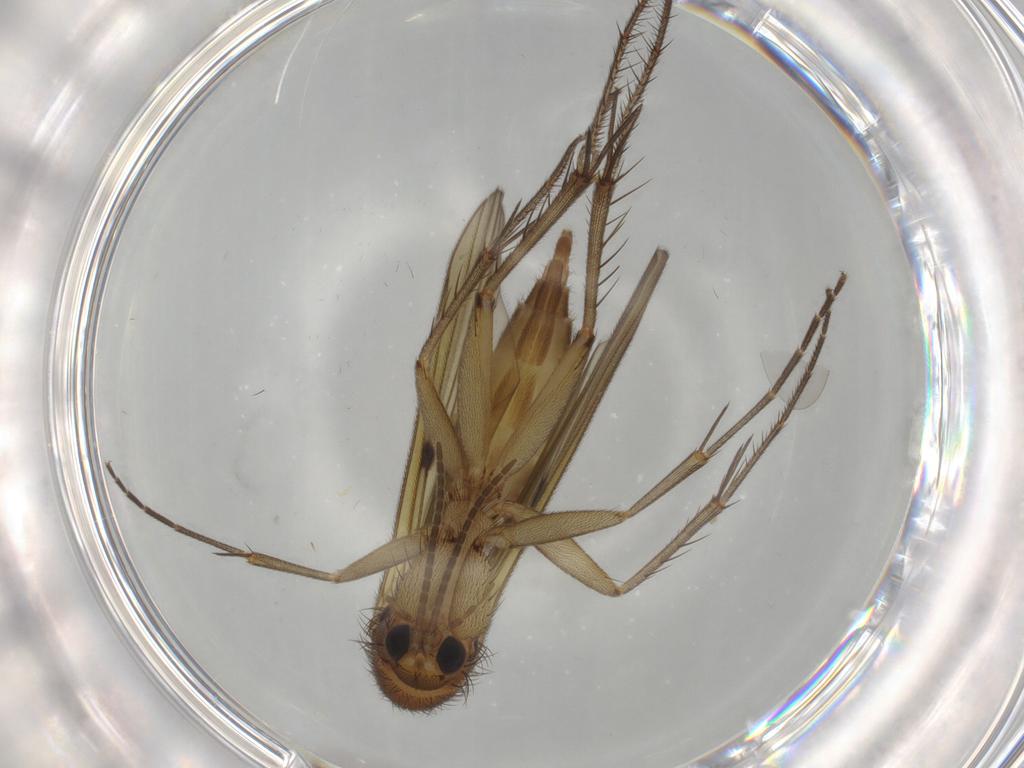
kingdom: Animalia
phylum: Arthropoda
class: Insecta
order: Diptera
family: Mycetophilidae
